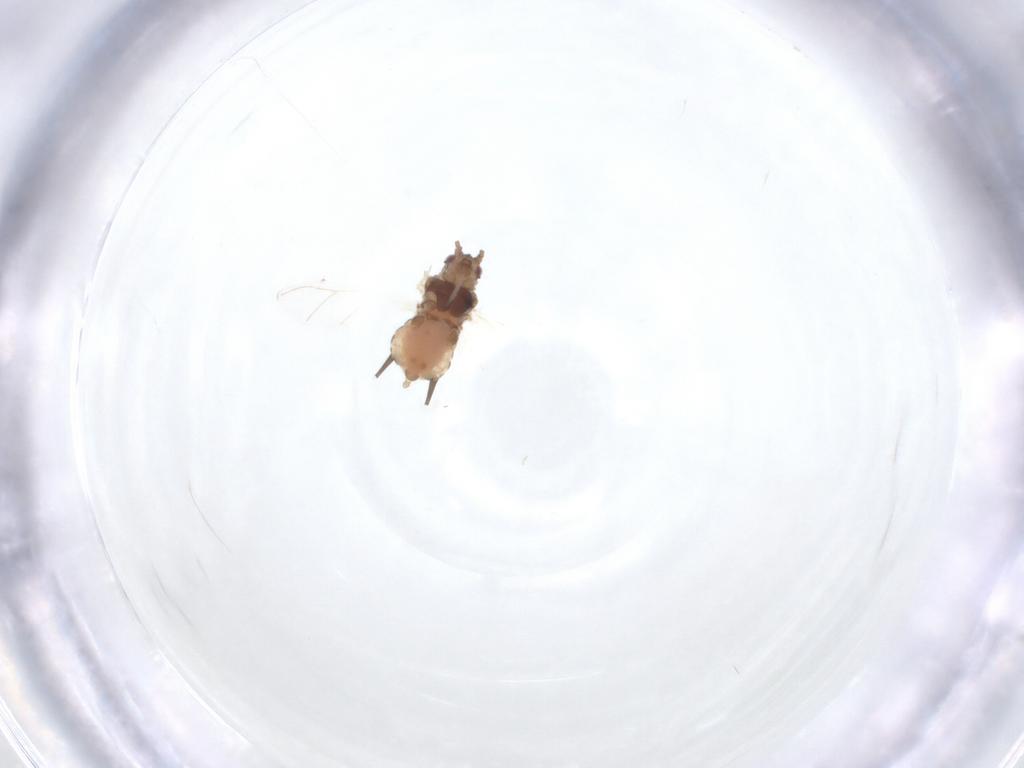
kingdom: Animalia
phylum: Arthropoda
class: Insecta
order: Hemiptera
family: Aphididae
